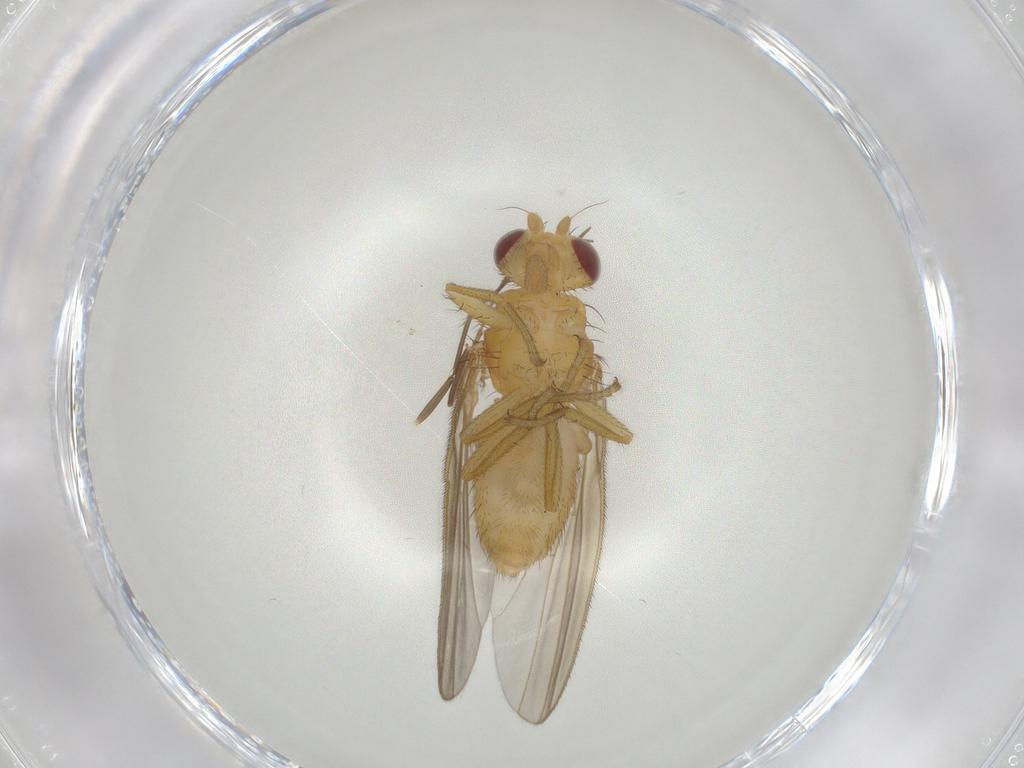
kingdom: Animalia
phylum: Arthropoda
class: Insecta
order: Diptera
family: Natalimyzidae
